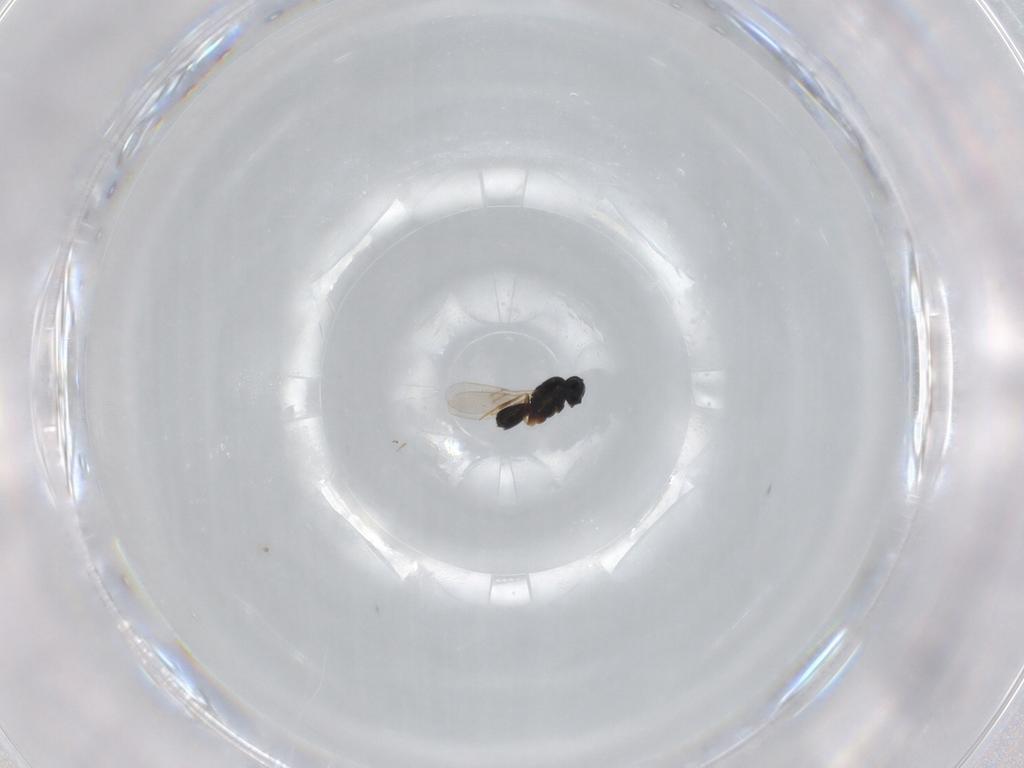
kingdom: Animalia
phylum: Arthropoda
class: Insecta
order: Hymenoptera
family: Scelionidae
